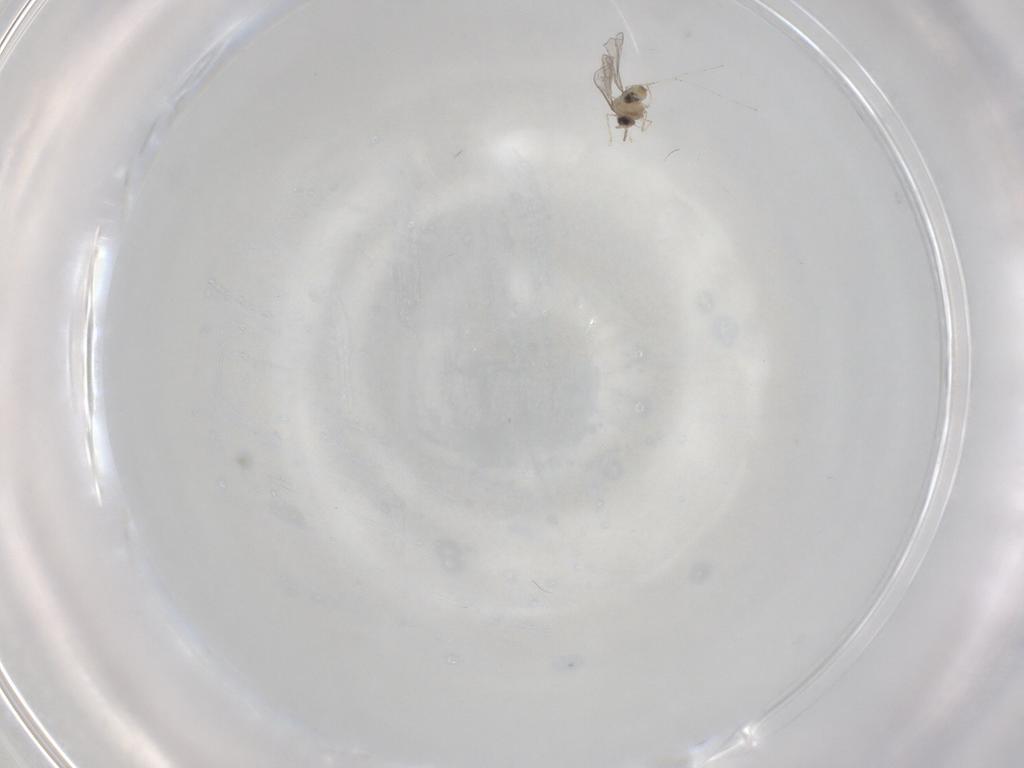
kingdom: Animalia
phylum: Arthropoda
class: Insecta
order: Diptera
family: Cecidomyiidae
